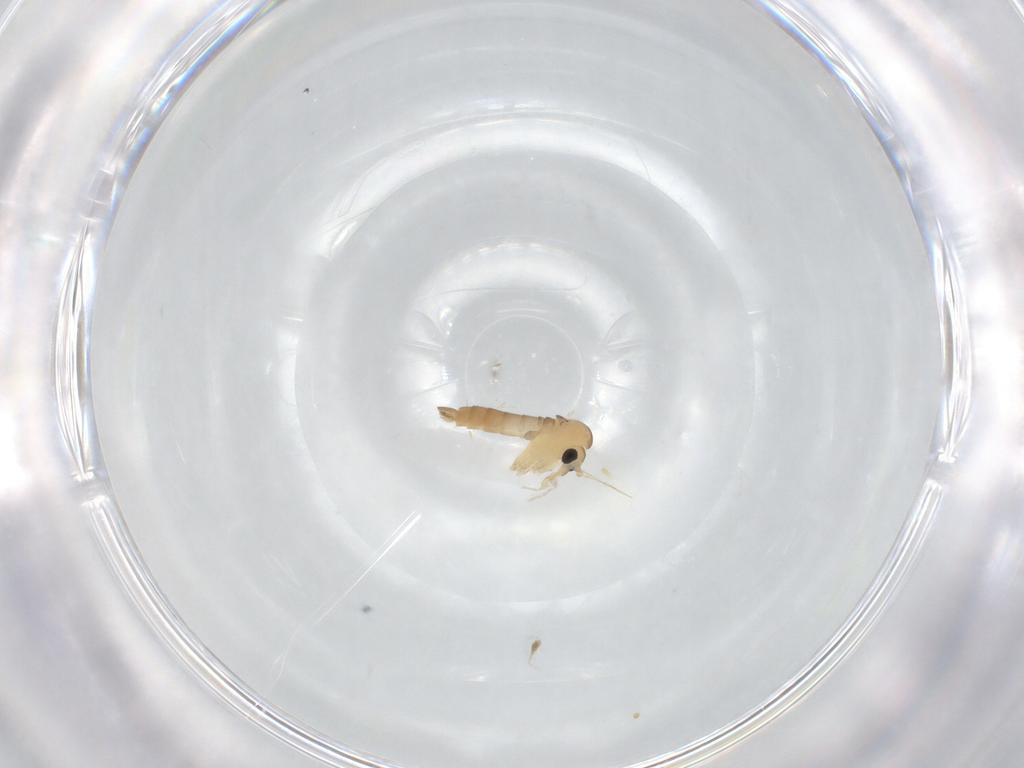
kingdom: Animalia
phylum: Arthropoda
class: Insecta
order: Diptera
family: Psychodidae
